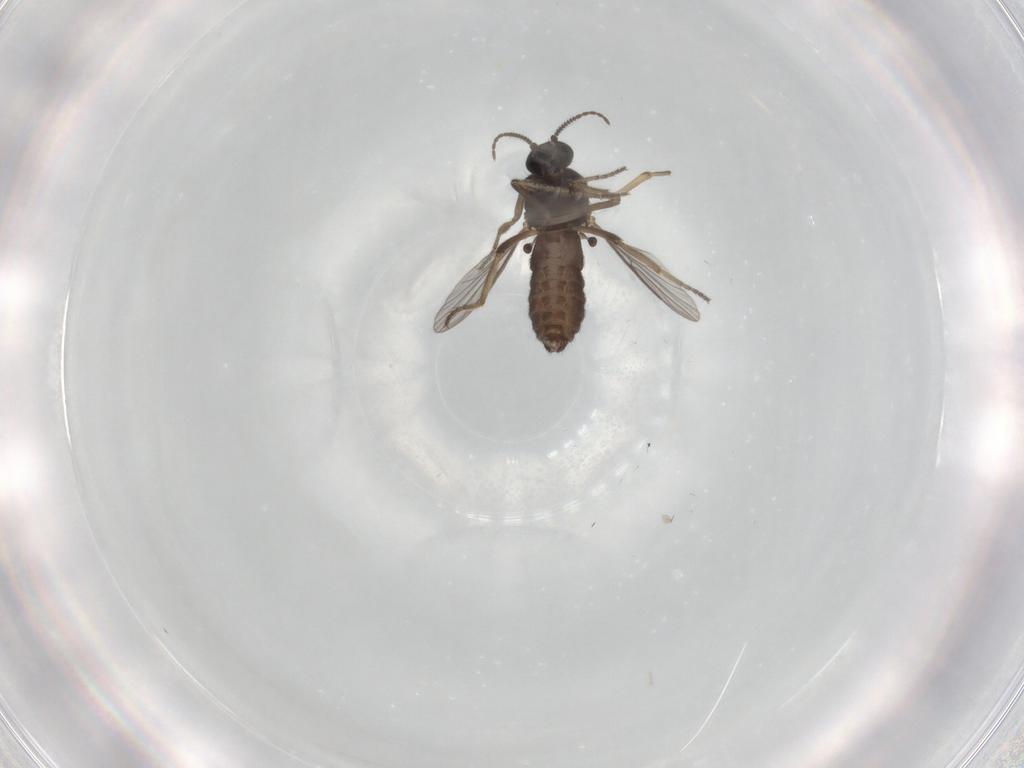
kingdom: Animalia
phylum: Arthropoda
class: Insecta
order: Diptera
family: Ceratopogonidae
